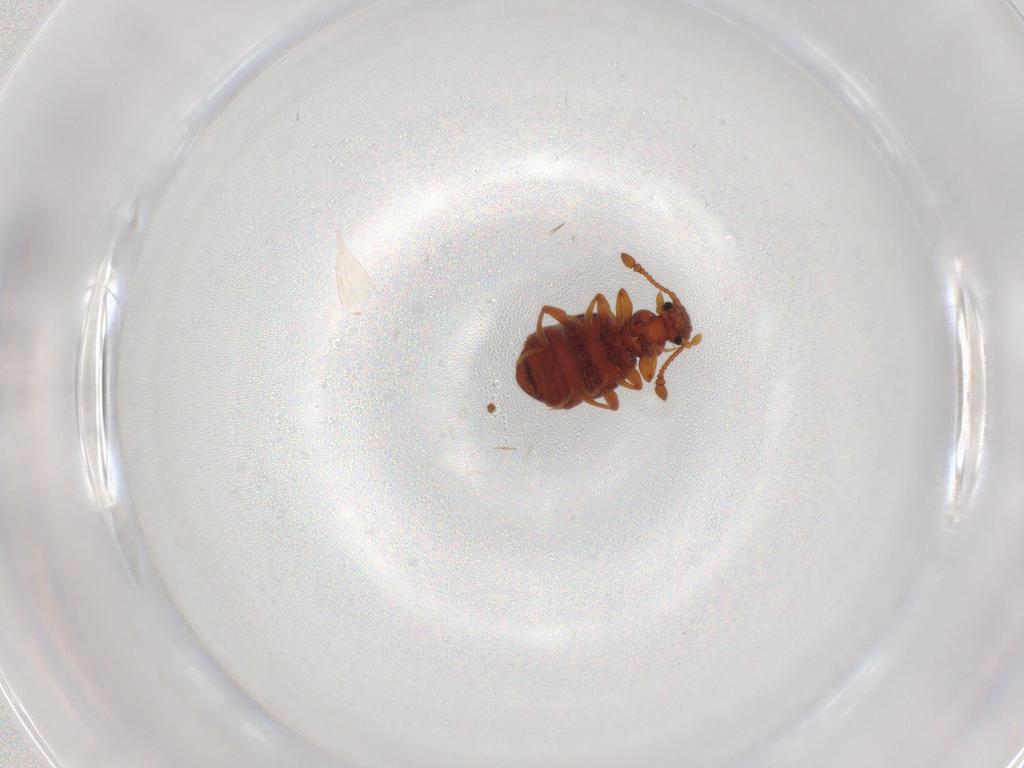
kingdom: Animalia
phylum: Arthropoda
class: Insecta
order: Coleoptera
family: Staphylinidae
